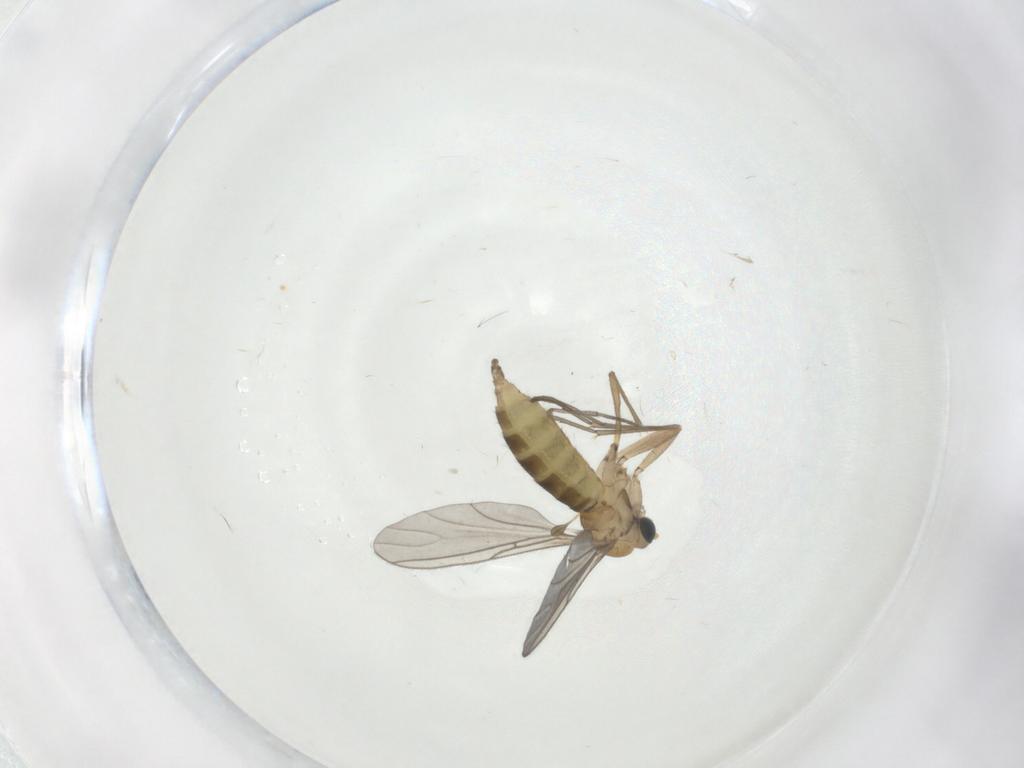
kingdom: Animalia
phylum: Arthropoda
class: Insecta
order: Diptera
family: Sciaridae
